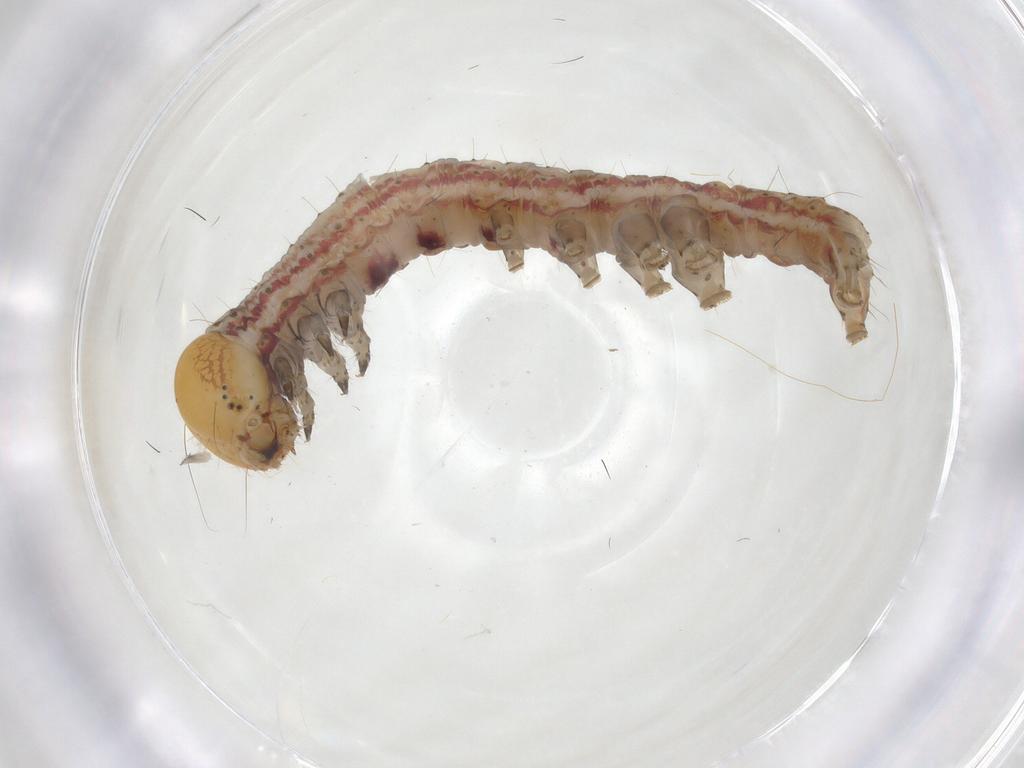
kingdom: Animalia
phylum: Arthropoda
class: Insecta
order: Lepidoptera
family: Noctuidae
